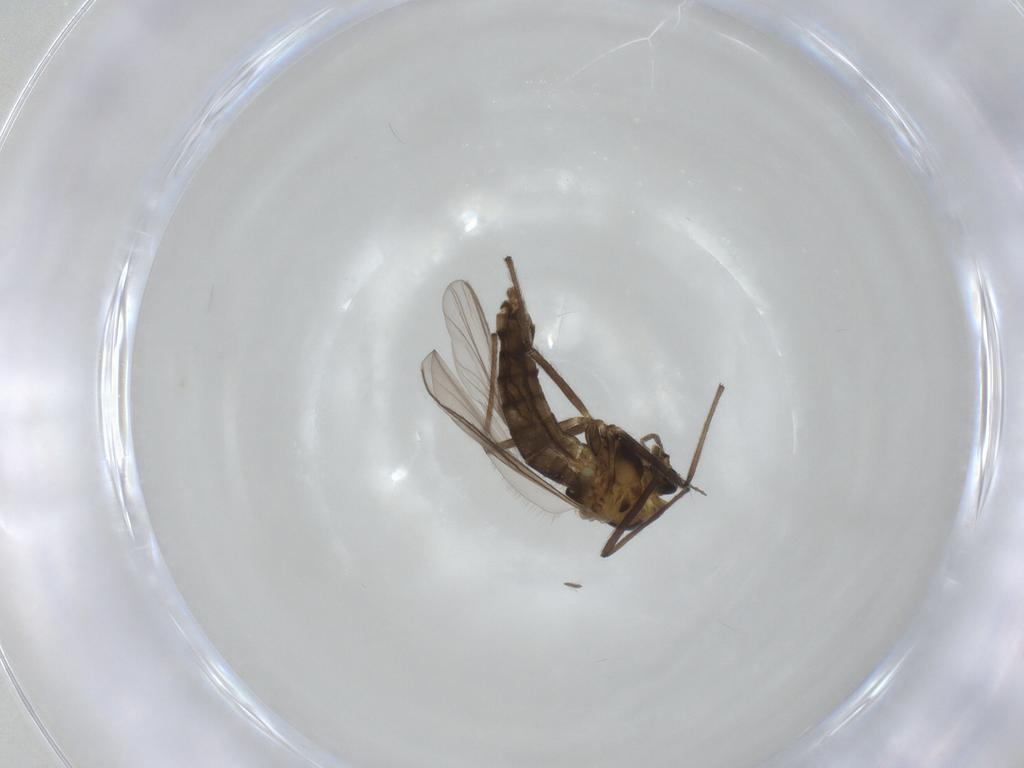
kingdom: Animalia
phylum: Arthropoda
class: Insecta
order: Diptera
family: Chironomidae
